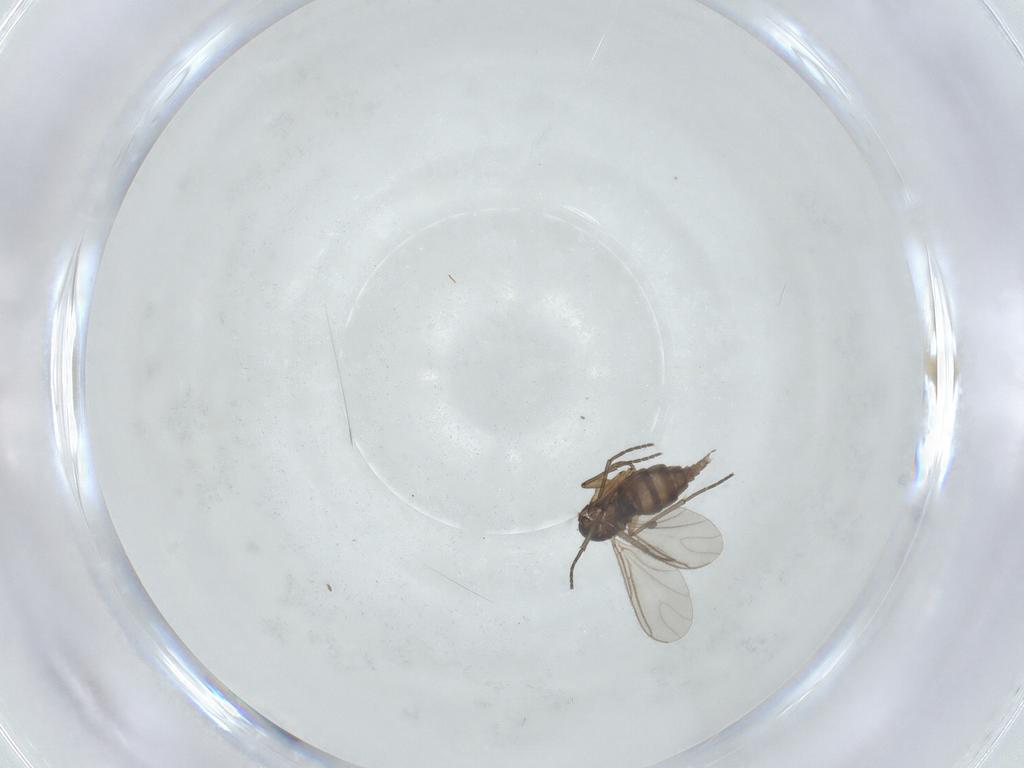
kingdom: Animalia
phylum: Arthropoda
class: Insecta
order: Diptera
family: Sciaridae
